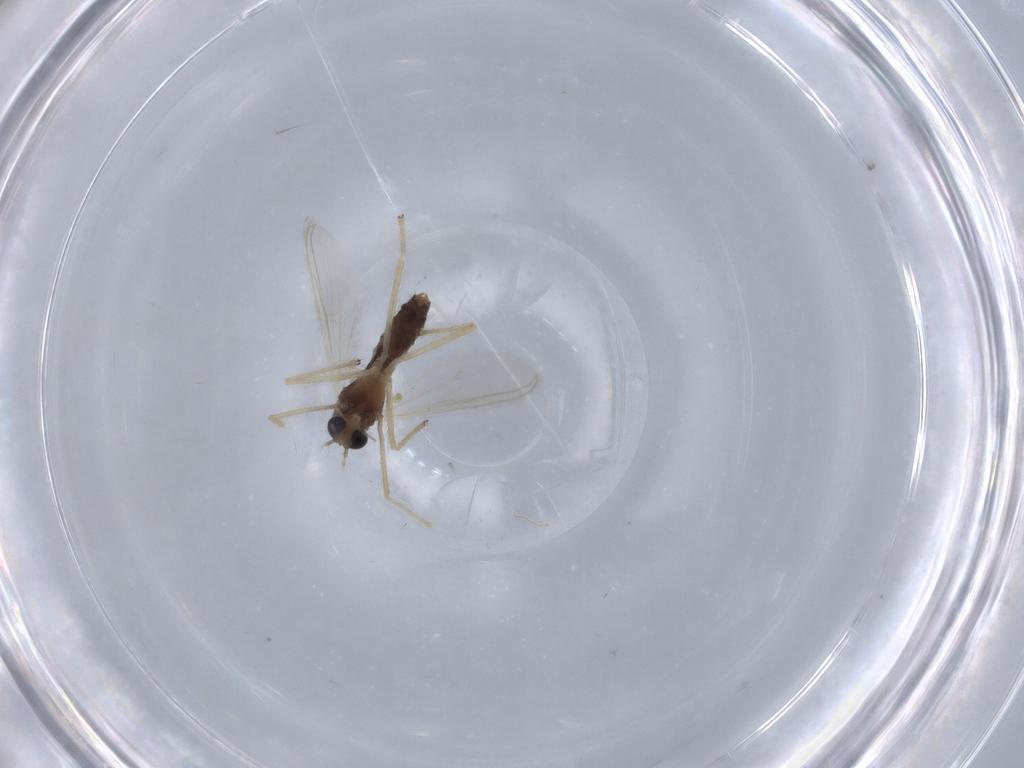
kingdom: Animalia
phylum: Arthropoda
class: Insecta
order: Diptera
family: Chironomidae
